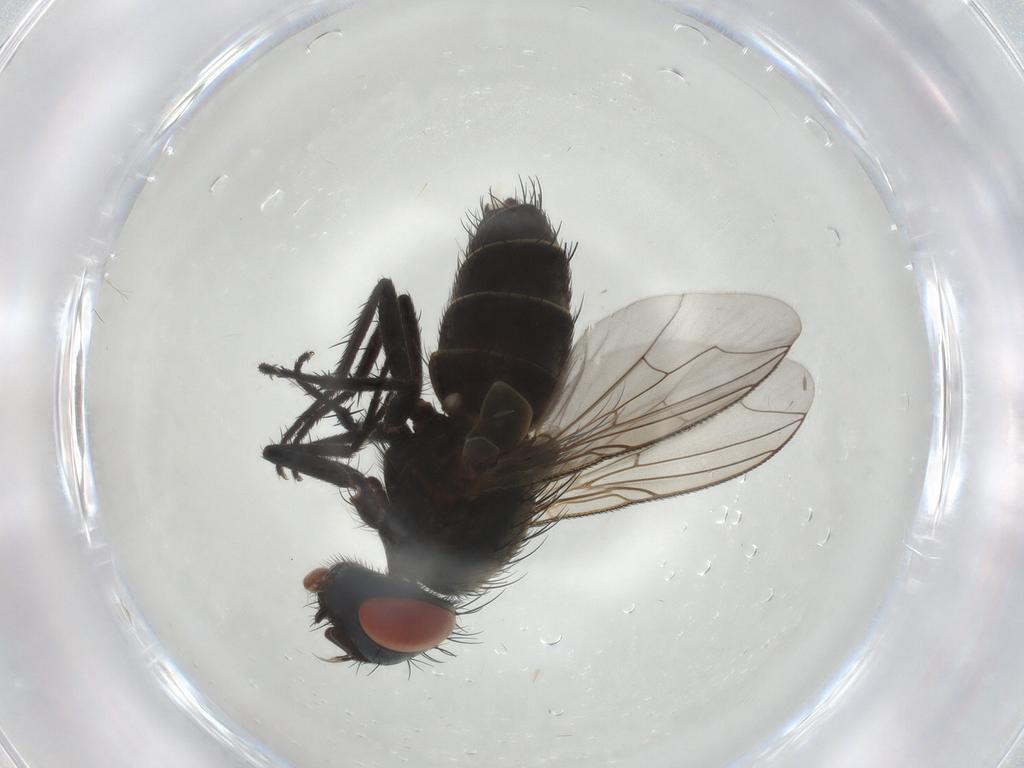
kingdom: Animalia
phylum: Arthropoda
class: Insecta
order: Diptera
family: Sarcophagidae
